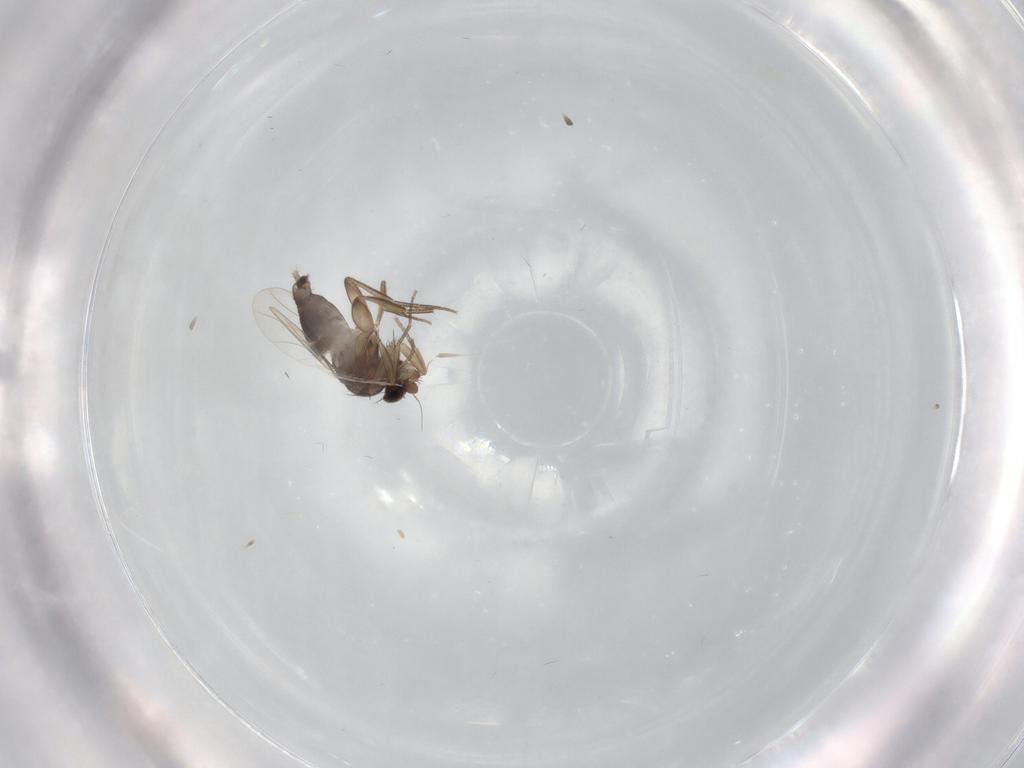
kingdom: Animalia
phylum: Arthropoda
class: Insecta
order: Diptera
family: Phoridae
